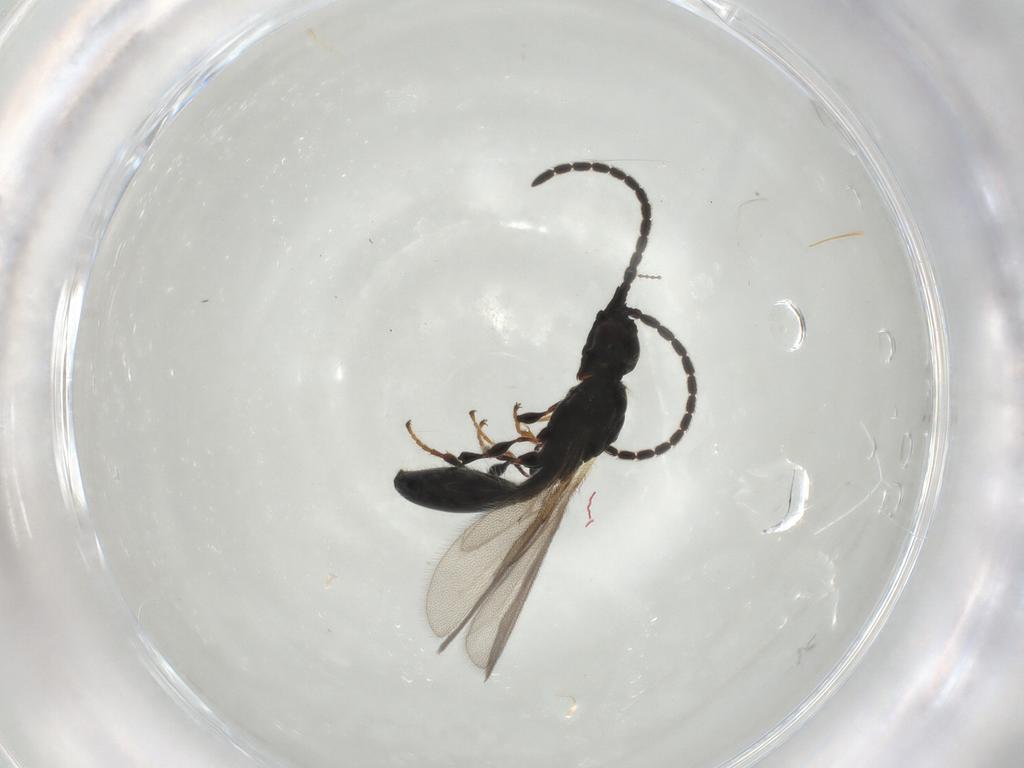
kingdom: Animalia
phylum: Arthropoda
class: Insecta
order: Hymenoptera
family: Diapriidae
